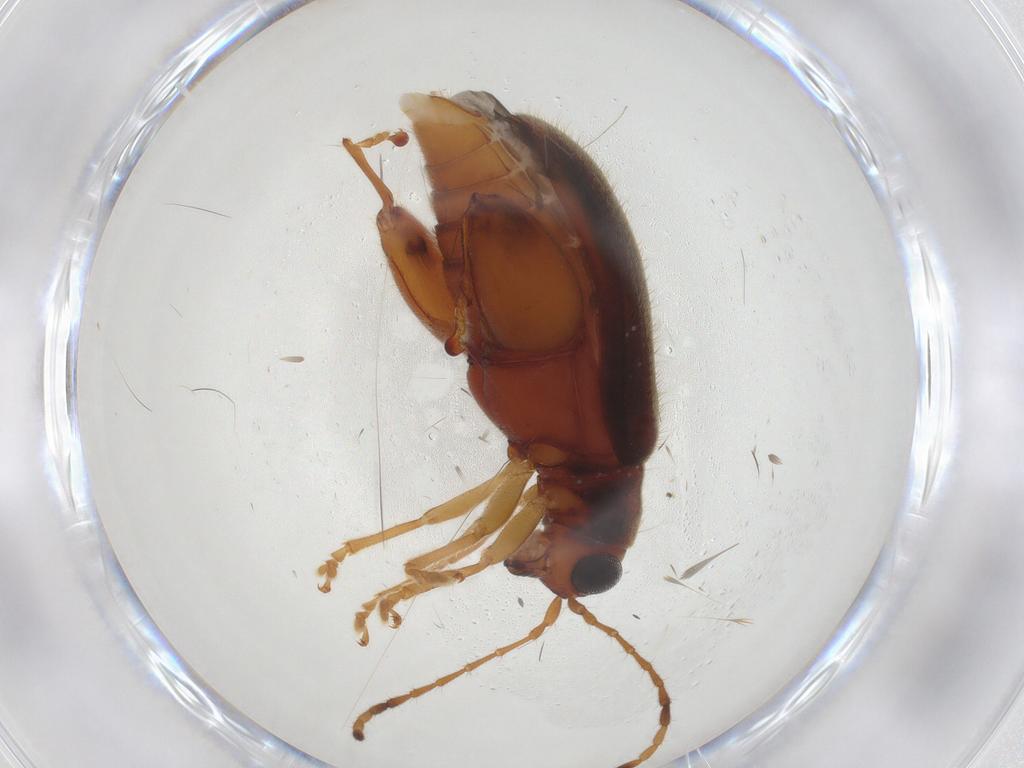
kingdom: Animalia
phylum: Arthropoda
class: Insecta
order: Coleoptera
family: Chrysomelidae
